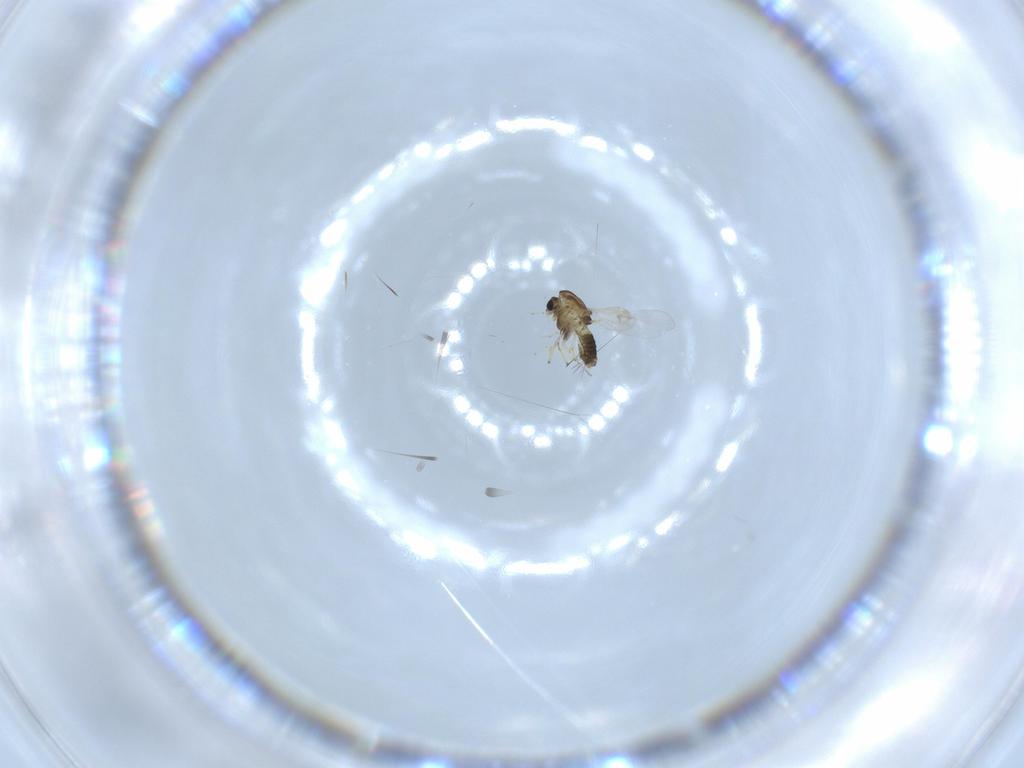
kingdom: Animalia
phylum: Arthropoda
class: Insecta
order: Diptera
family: Chironomidae
